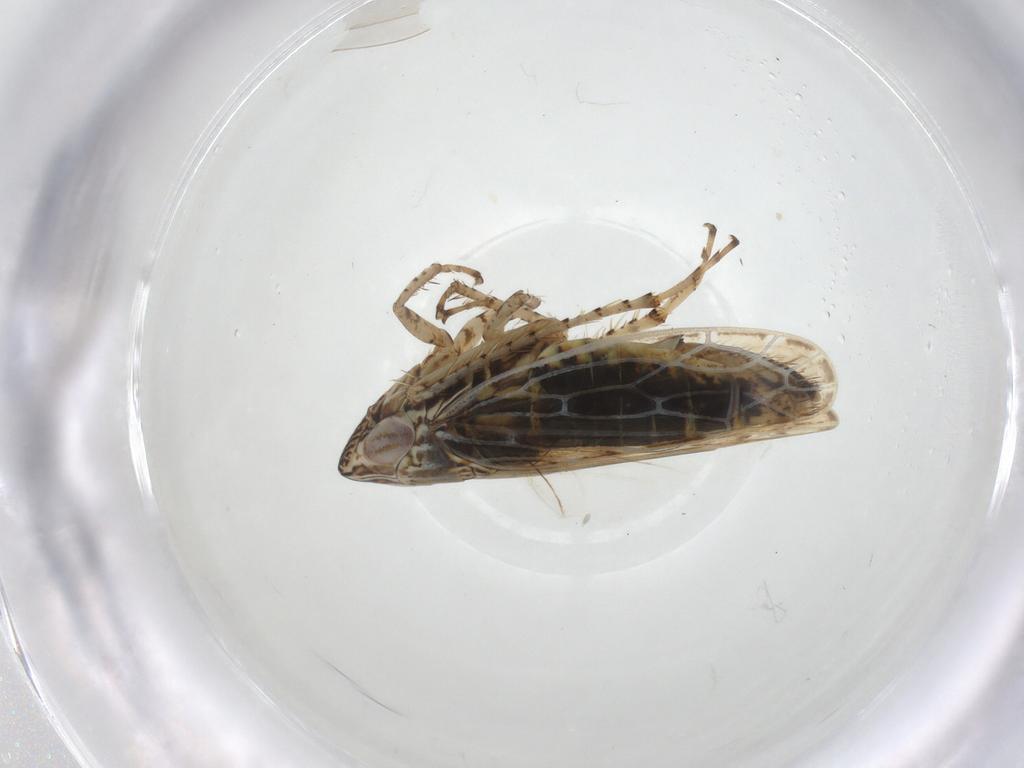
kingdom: Animalia
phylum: Arthropoda
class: Insecta
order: Hemiptera
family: Cicadellidae
